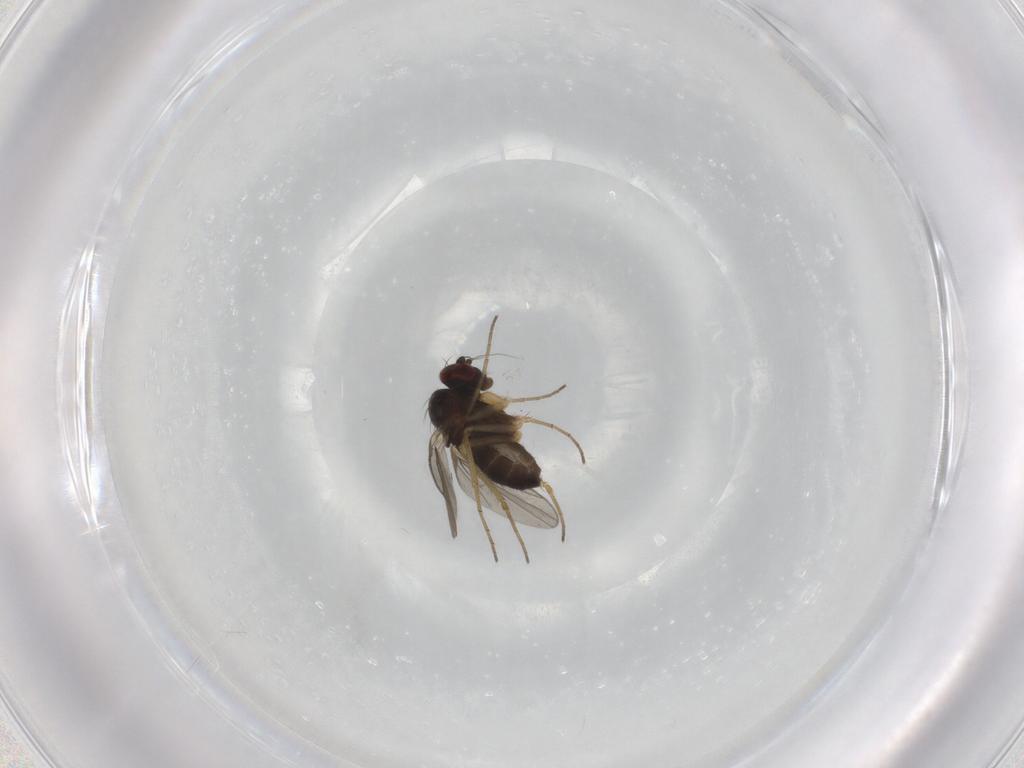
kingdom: Animalia
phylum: Arthropoda
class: Insecta
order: Diptera
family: Dolichopodidae
